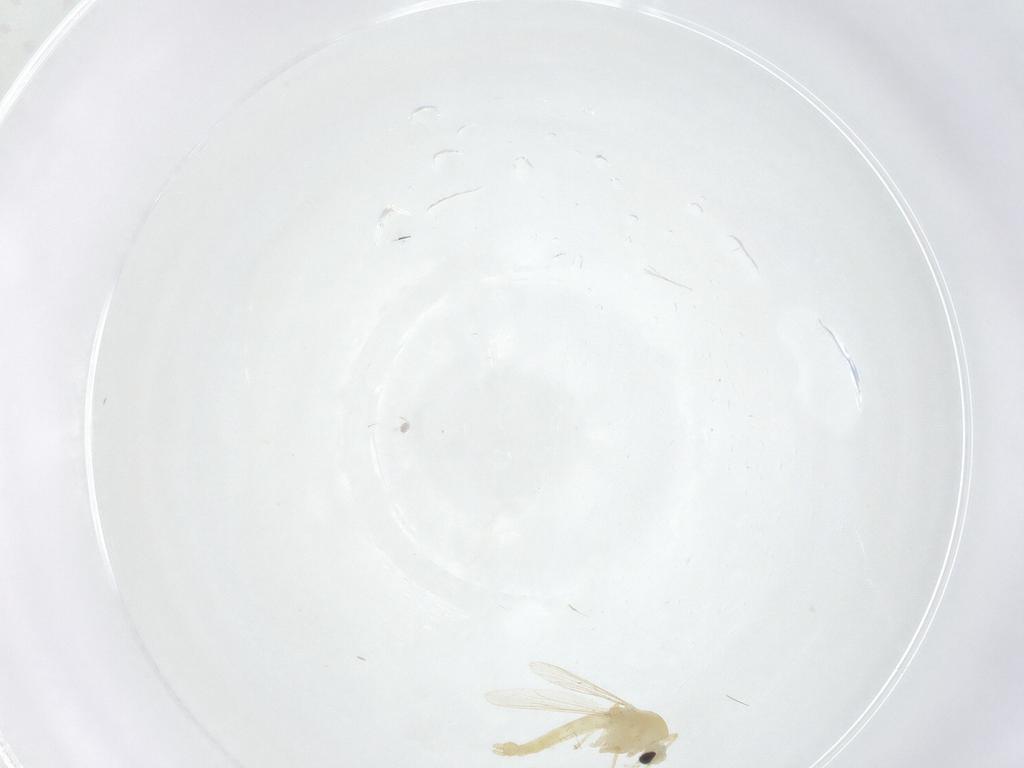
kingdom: Animalia
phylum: Arthropoda
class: Insecta
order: Diptera
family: Chironomidae
